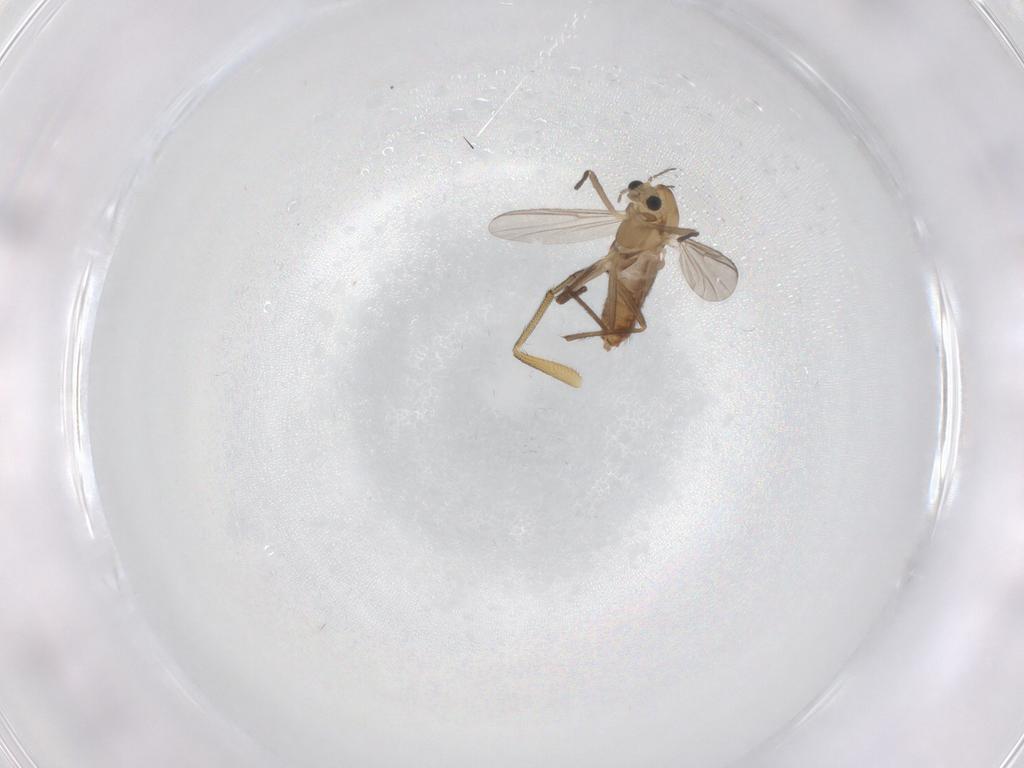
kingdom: Animalia
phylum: Arthropoda
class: Insecta
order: Diptera
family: Chironomidae
